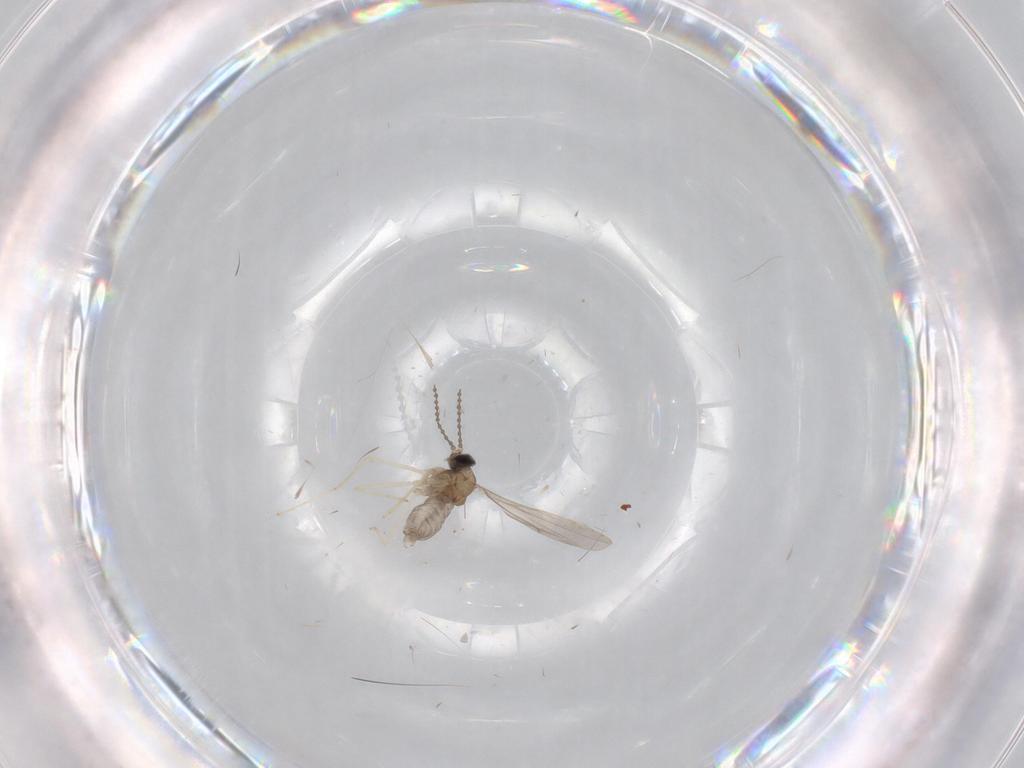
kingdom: Animalia
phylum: Arthropoda
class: Insecta
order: Diptera
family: Cecidomyiidae
